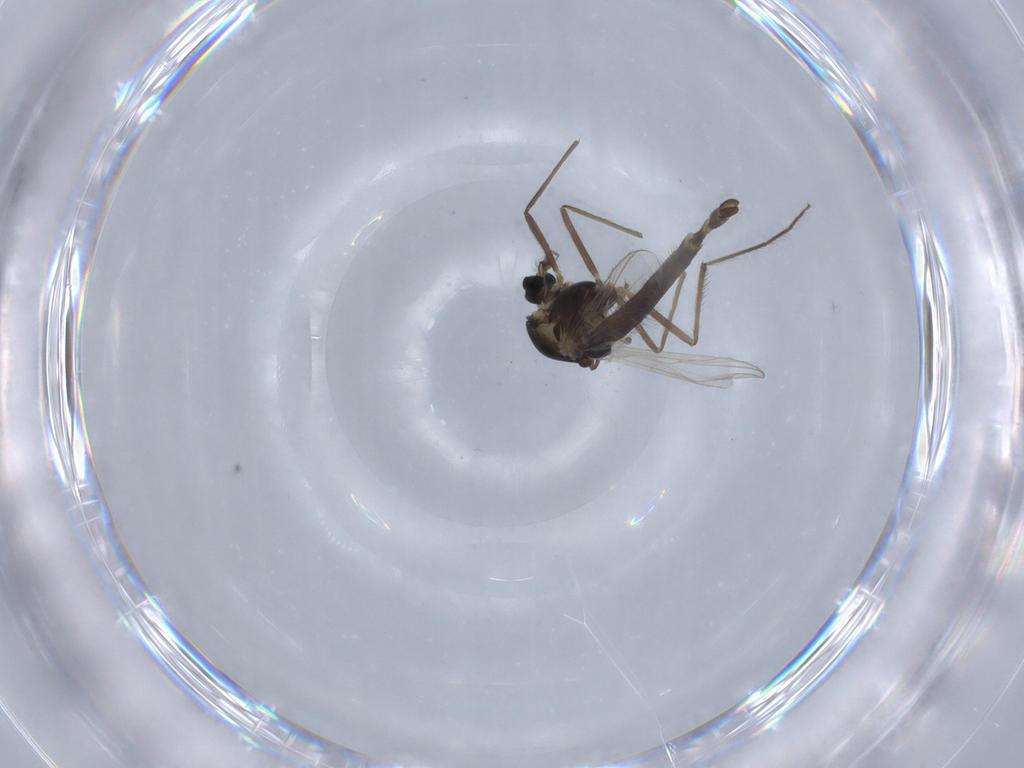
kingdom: Animalia
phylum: Arthropoda
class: Insecta
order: Diptera
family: Chironomidae
